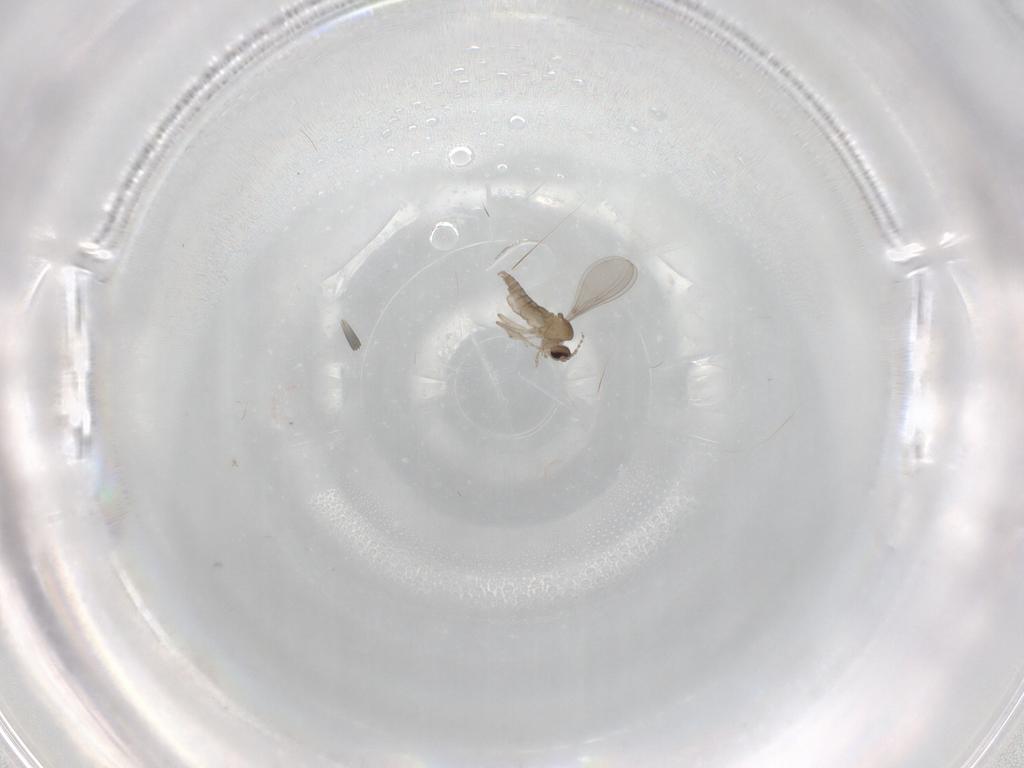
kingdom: Animalia
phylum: Arthropoda
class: Insecta
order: Diptera
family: Cecidomyiidae
